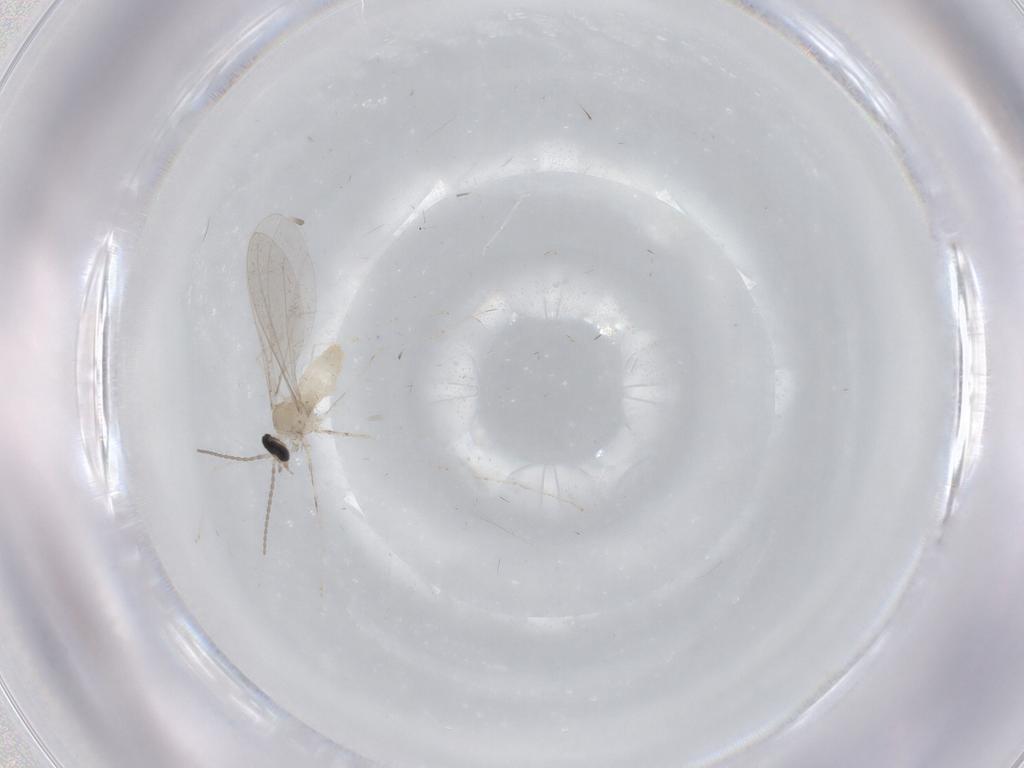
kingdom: Animalia
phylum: Arthropoda
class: Insecta
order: Diptera
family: Cecidomyiidae
